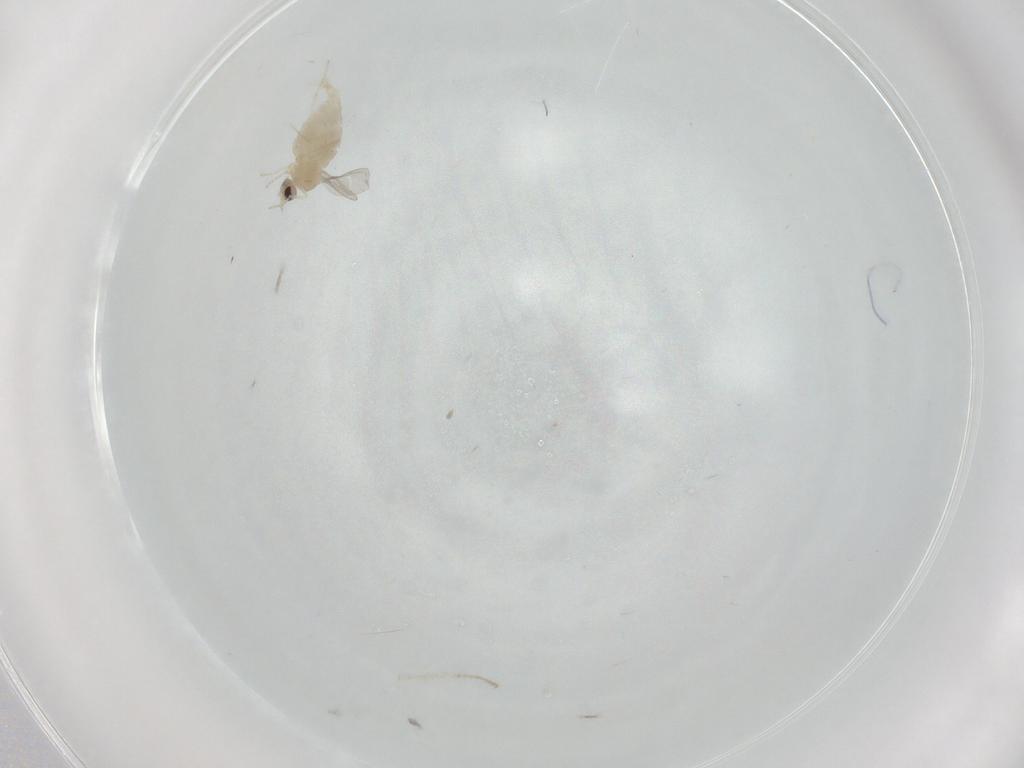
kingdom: Animalia
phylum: Arthropoda
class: Insecta
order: Diptera
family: Cecidomyiidae
